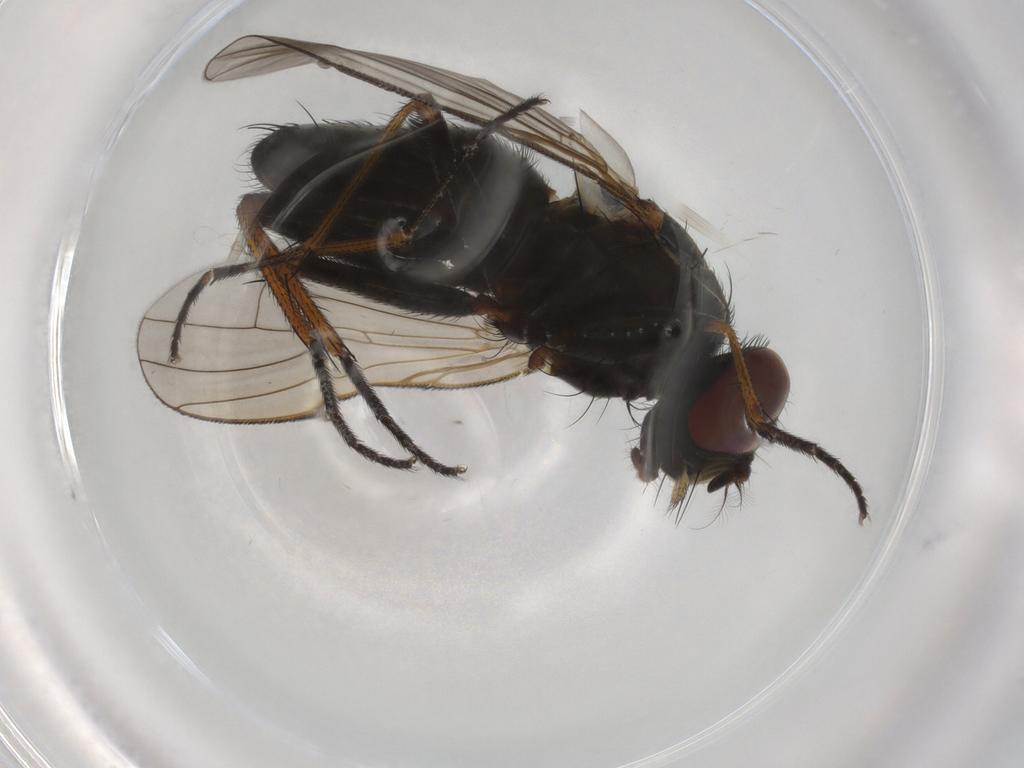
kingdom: Animalia
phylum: Arthropoda
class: Insecta
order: Diptera
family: Muscidae
